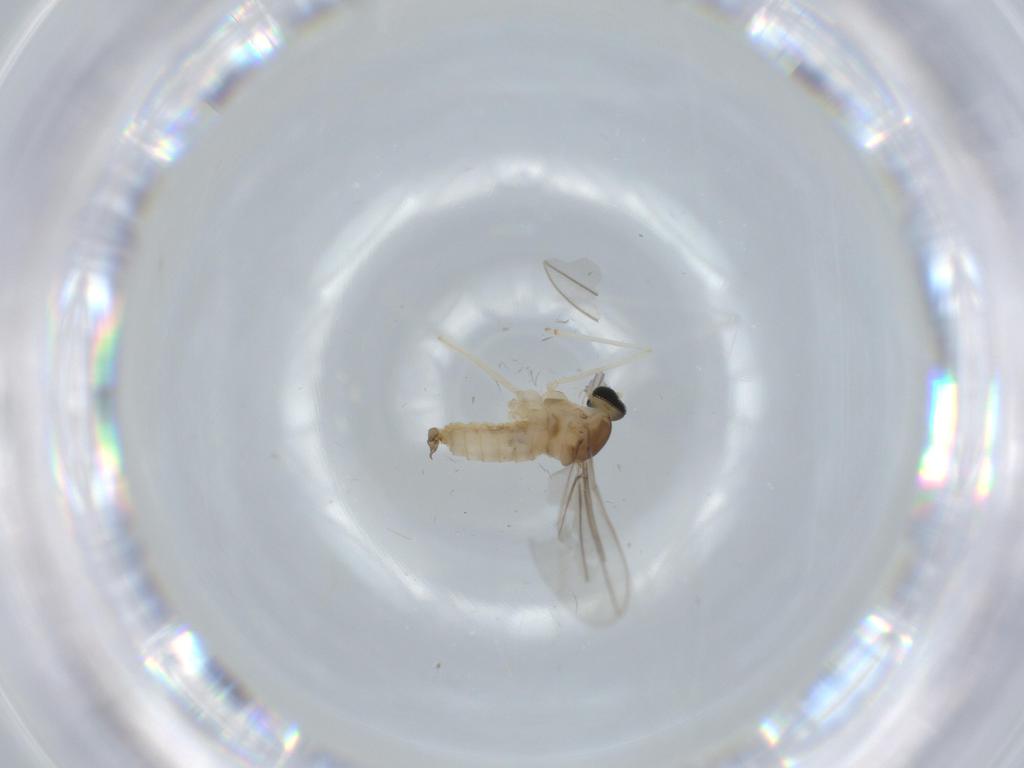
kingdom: Animalia
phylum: Arthropoda
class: Insecta
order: Diptera
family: Cecidomyiidae
